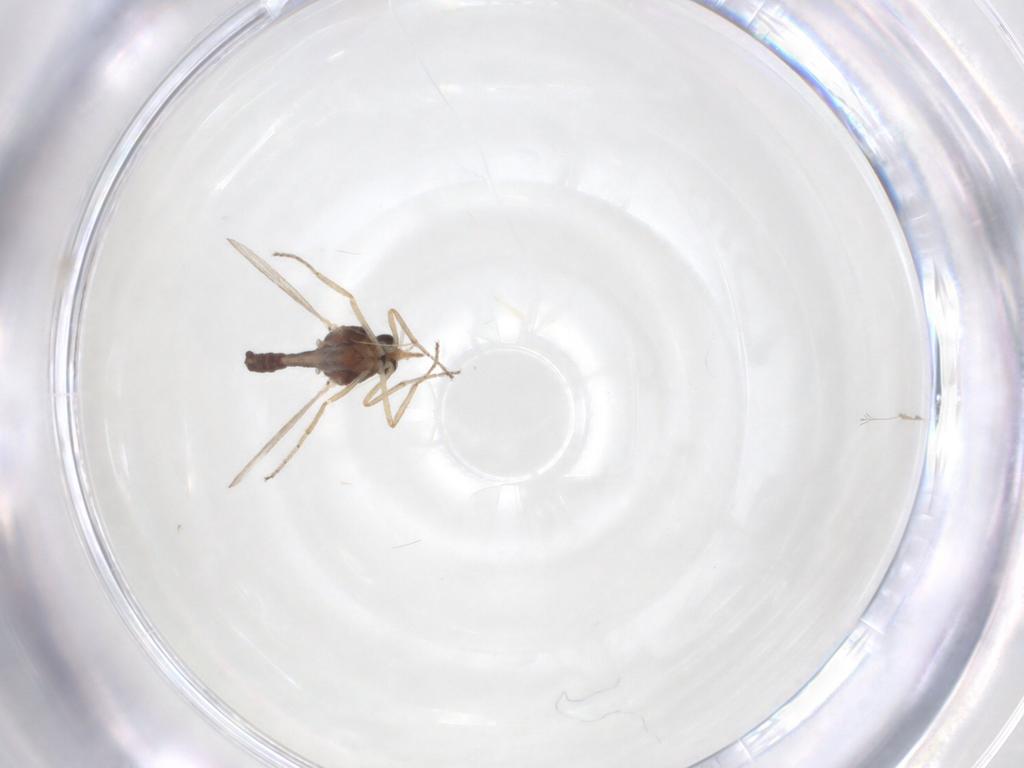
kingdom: Animalia
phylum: Arthropoda
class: Insecta
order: Diptera
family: Ceratopogonidae
